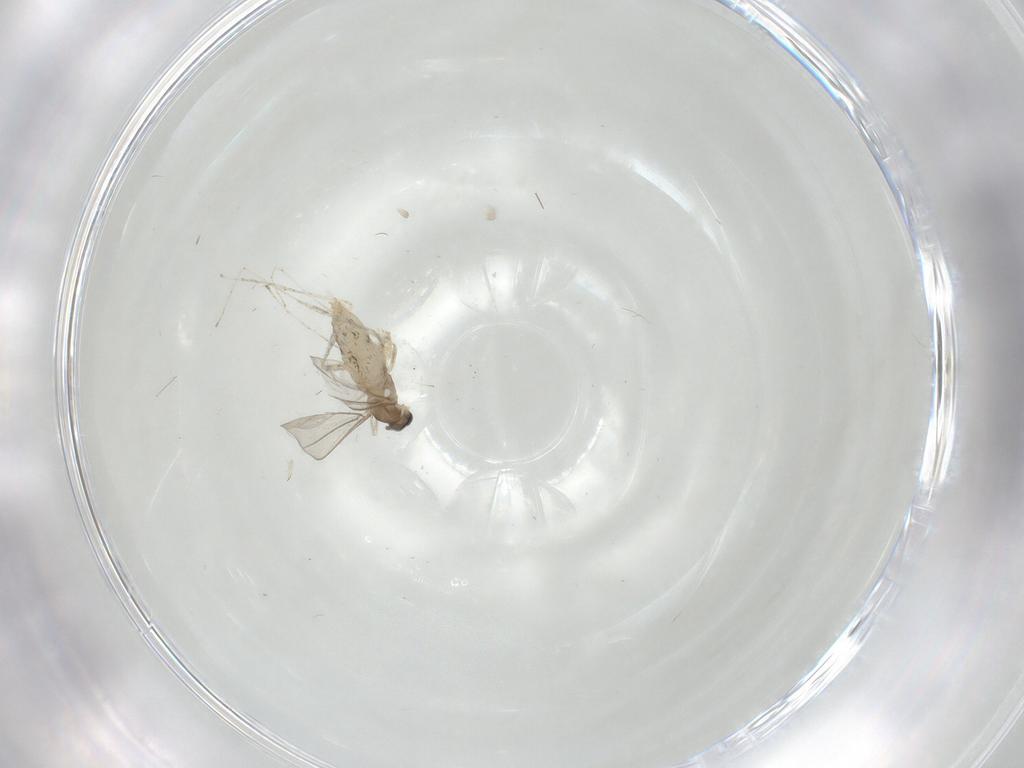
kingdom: Animalia
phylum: Arthropoda
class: Insecta
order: Diptera
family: Cecidomyiidae
